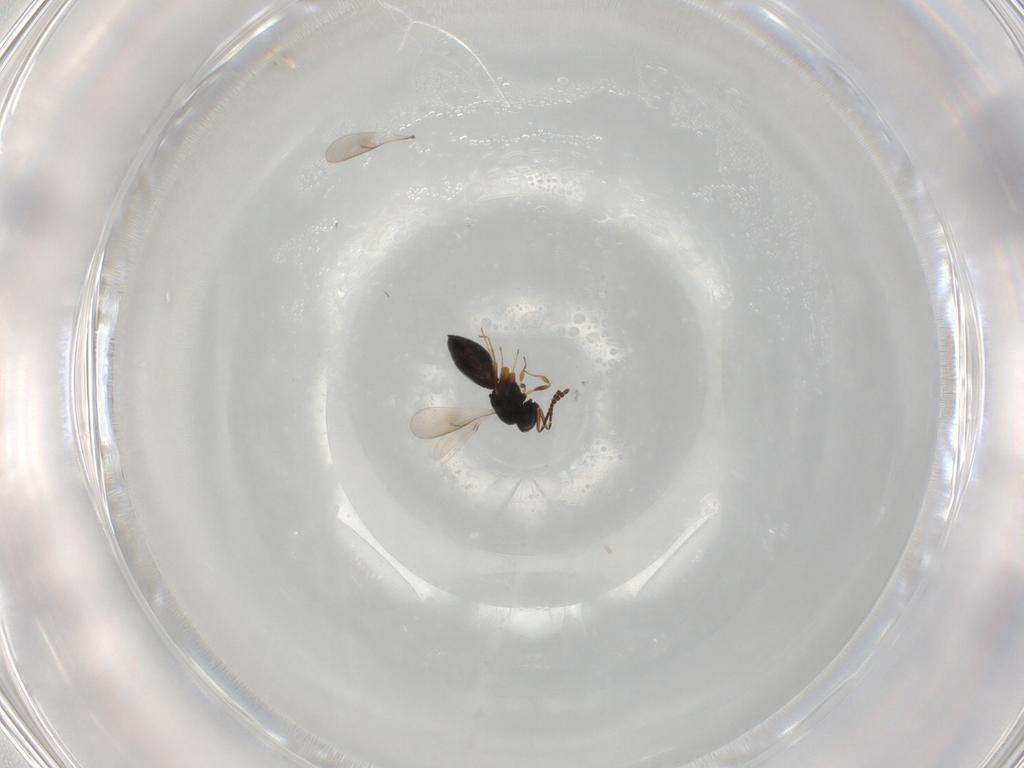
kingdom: Animalia
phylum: Arthropoda
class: Insecta
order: Hymenoptera
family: Scelionidae
